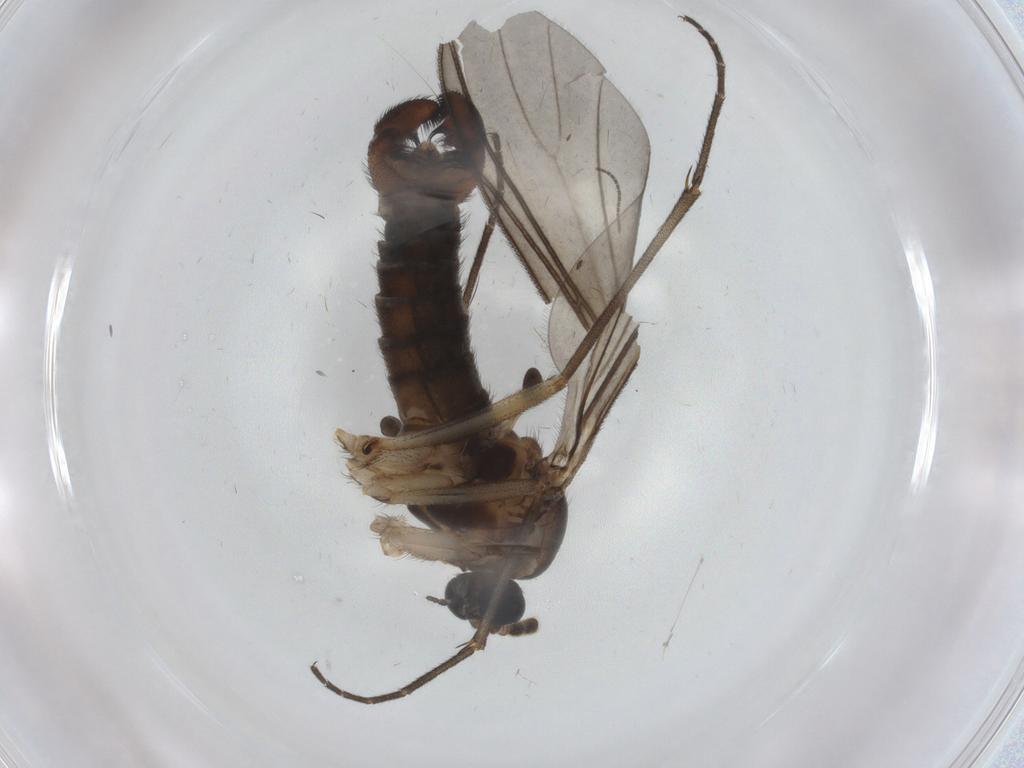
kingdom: Animalia
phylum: Arthropoda
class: Insecta
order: Diptera
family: Sciaridae
